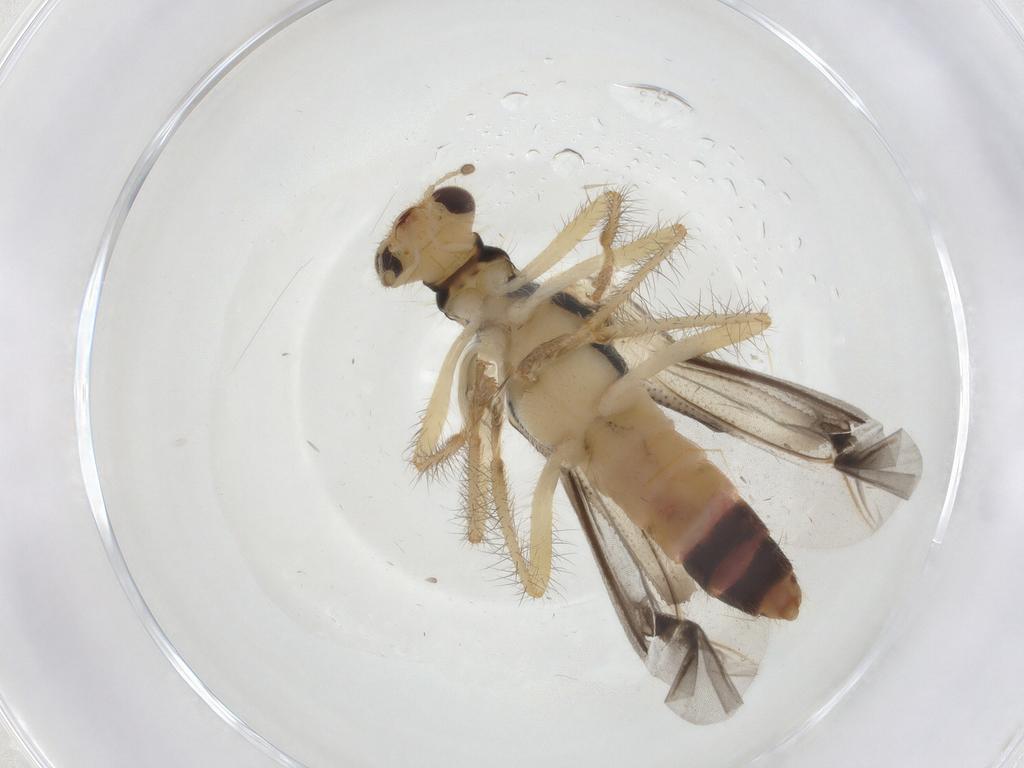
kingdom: Animalia
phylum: Arthropoda
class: Insecta
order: Coleoptera
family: Cleridae
